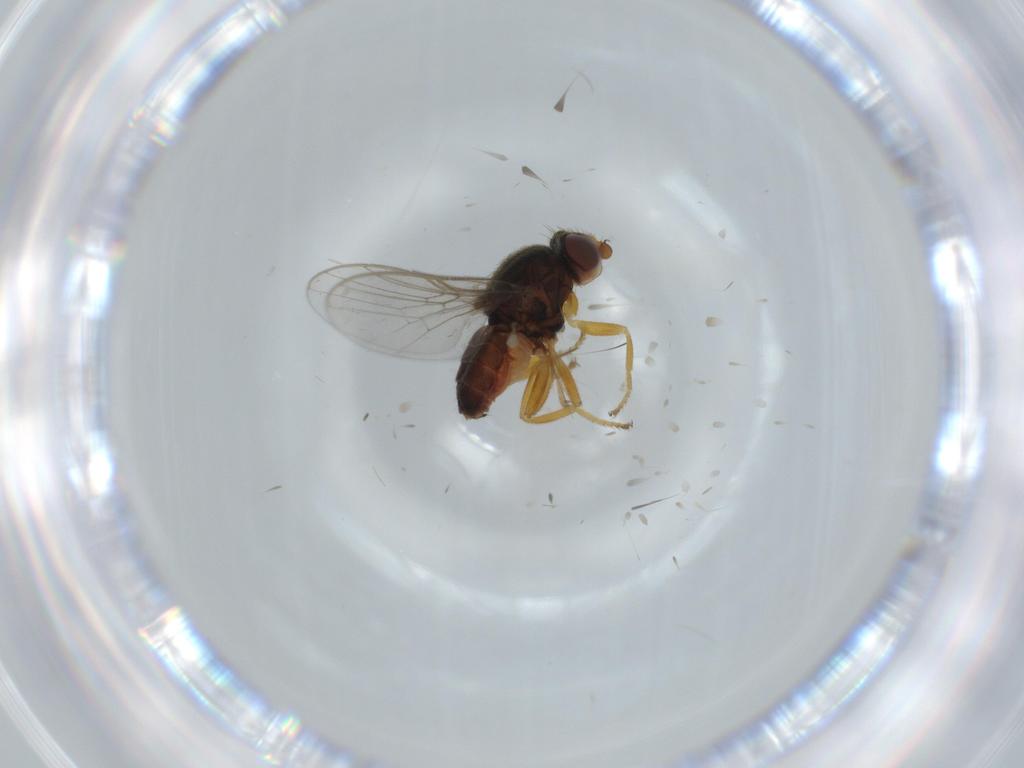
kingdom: Animalia
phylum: Arthropoda
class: Insecta
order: Diptera
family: Chloropidae
